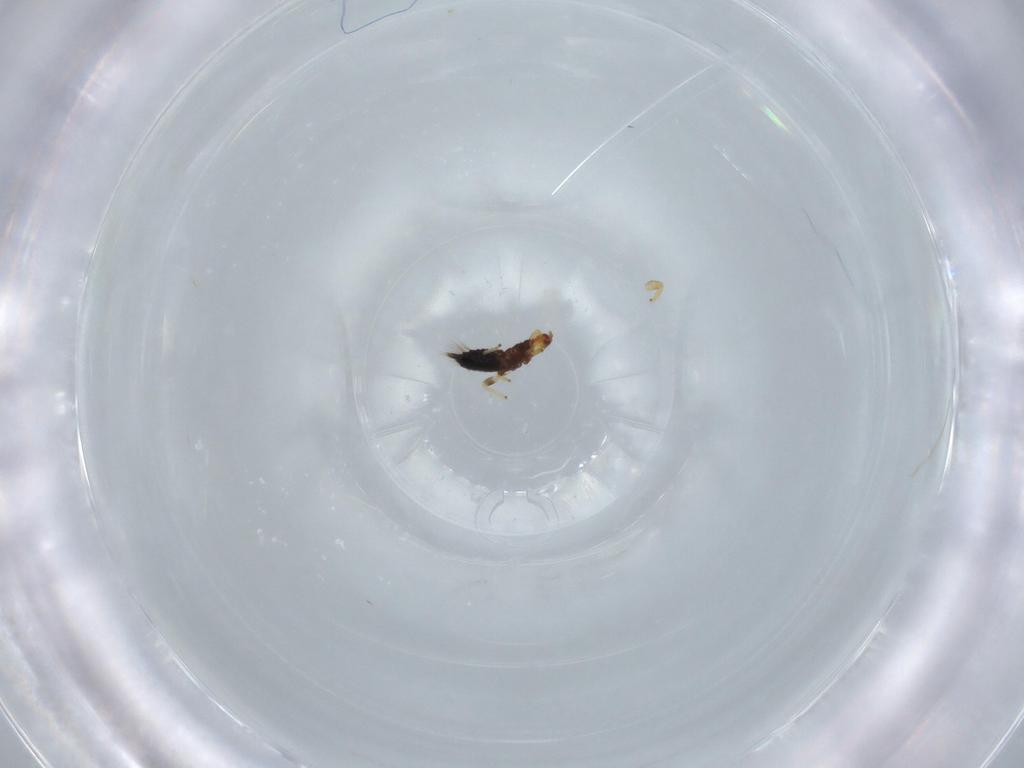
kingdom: Animalia
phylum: Arthropoda
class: Insecta
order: Thysanoptera
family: Phlaeothripidae
